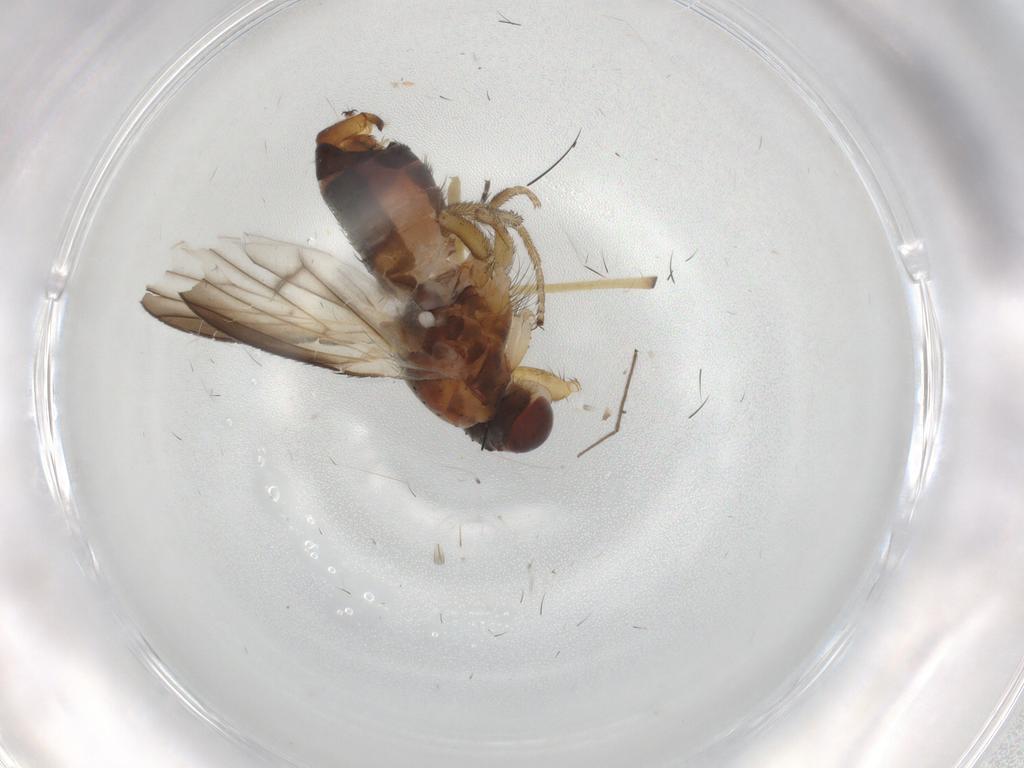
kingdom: Animalia
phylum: Arthropoda
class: Insecta
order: Diptera
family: Heleomyzidae
